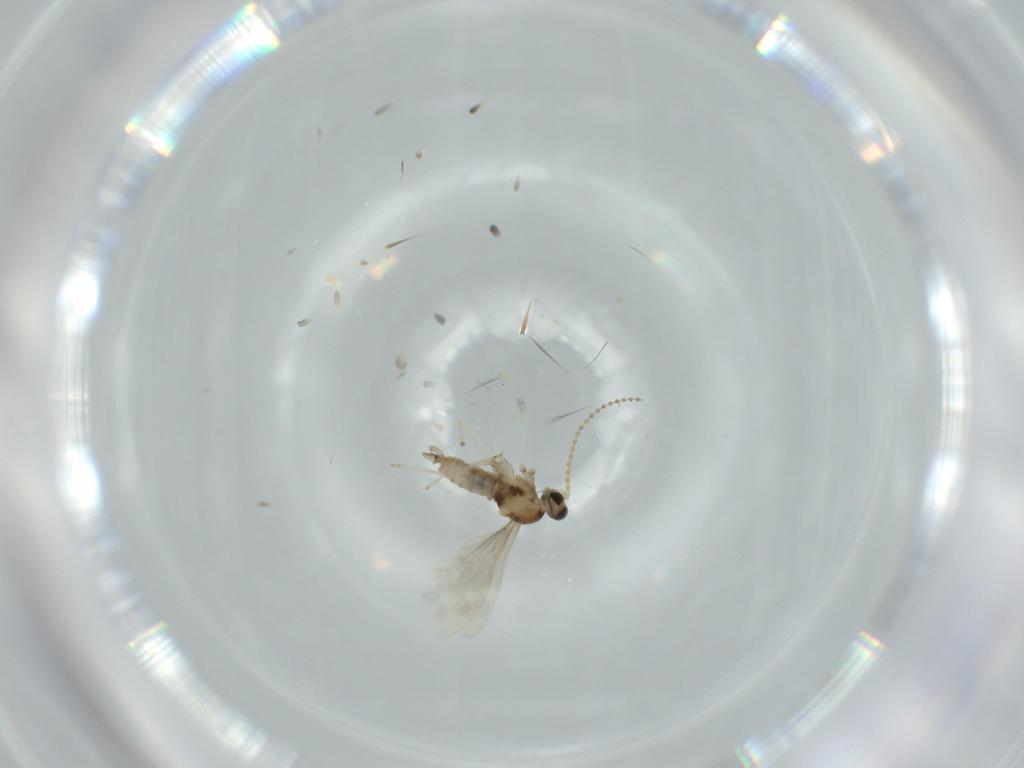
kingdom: Animalia
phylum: Arthropoda
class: Insecta
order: Diptera
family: Cecidomyiidae
